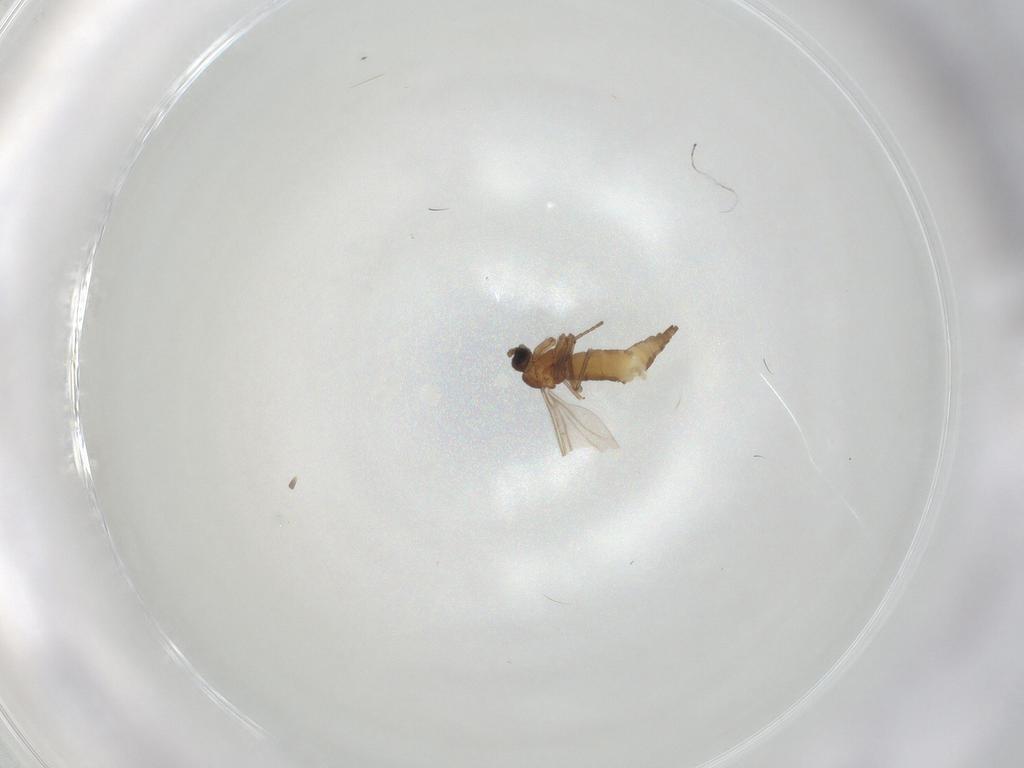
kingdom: Animalia
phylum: Arthropoda
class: Insecta
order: Diptera
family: Sciaridae
